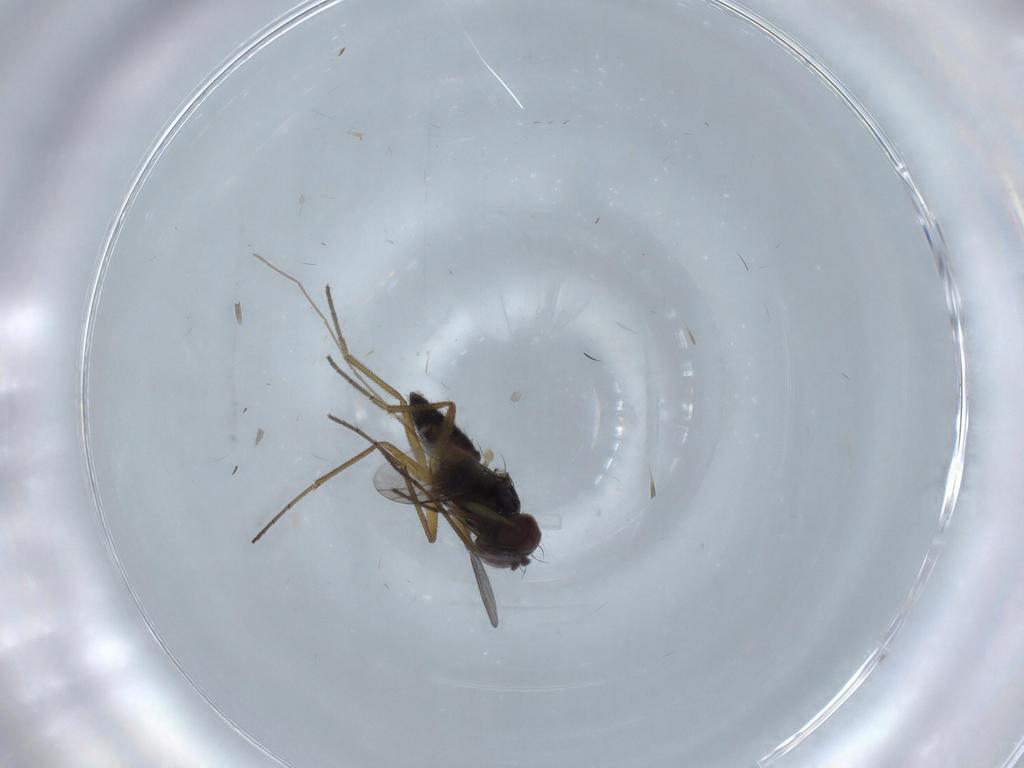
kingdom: Animalia
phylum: Arthropoda
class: Insecta
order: Diptera
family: Dolichopodidae
